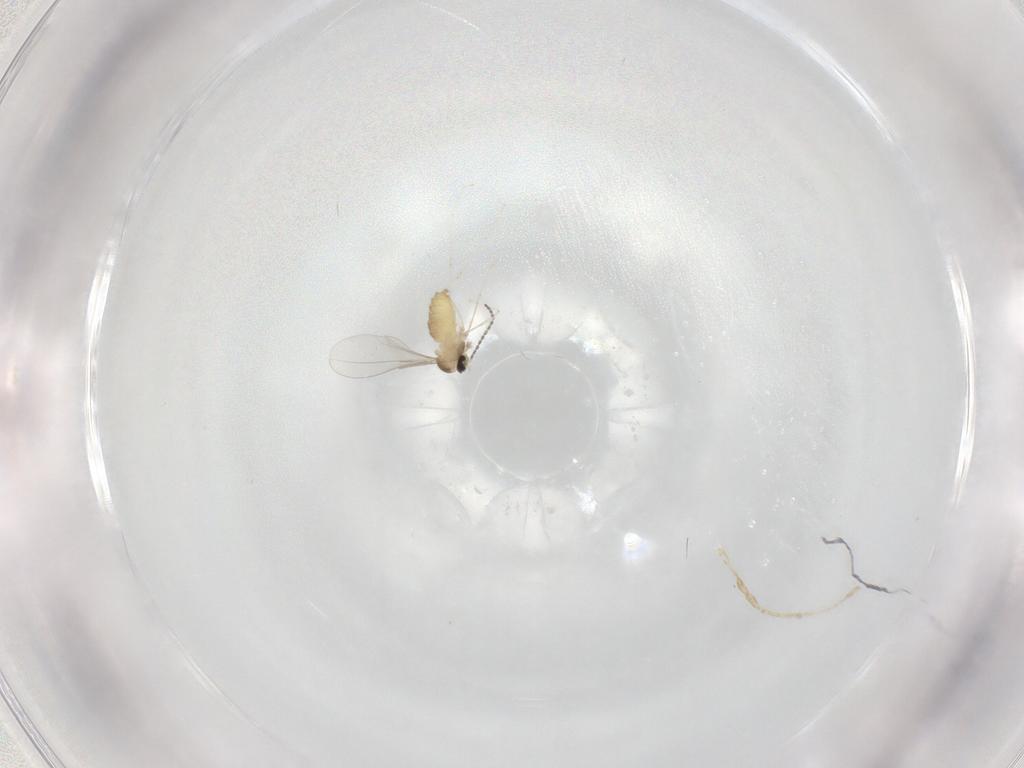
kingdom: Animalia
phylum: Arthropoda
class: Insecta
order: Diptera
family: Cecidomyiidae
